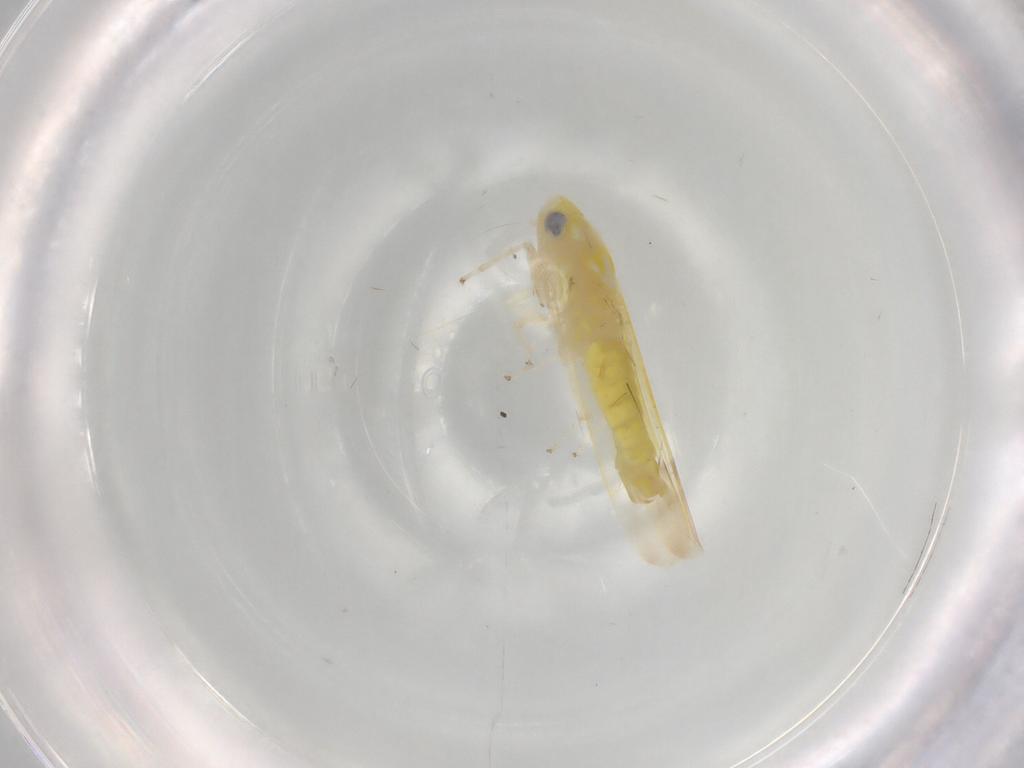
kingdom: Animalia
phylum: Arthropoda
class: Insecta
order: Hemiptera
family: Cicadellidae
